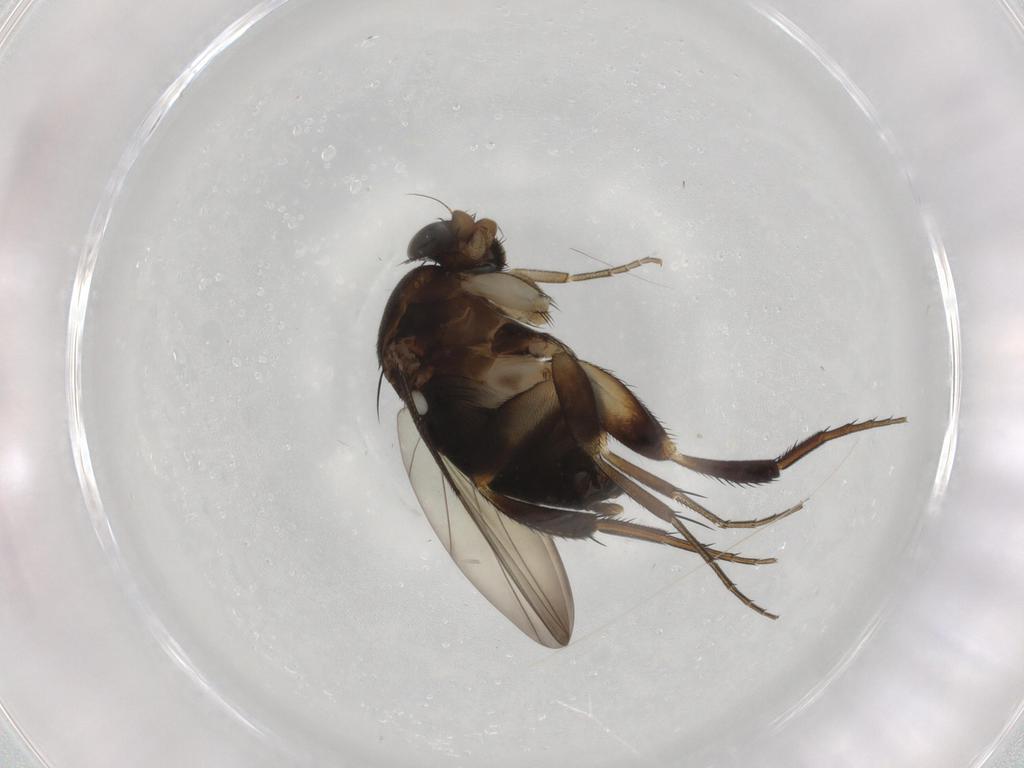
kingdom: Animalia
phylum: Arthropoda
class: Insecta
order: Diptera
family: Phoridae
